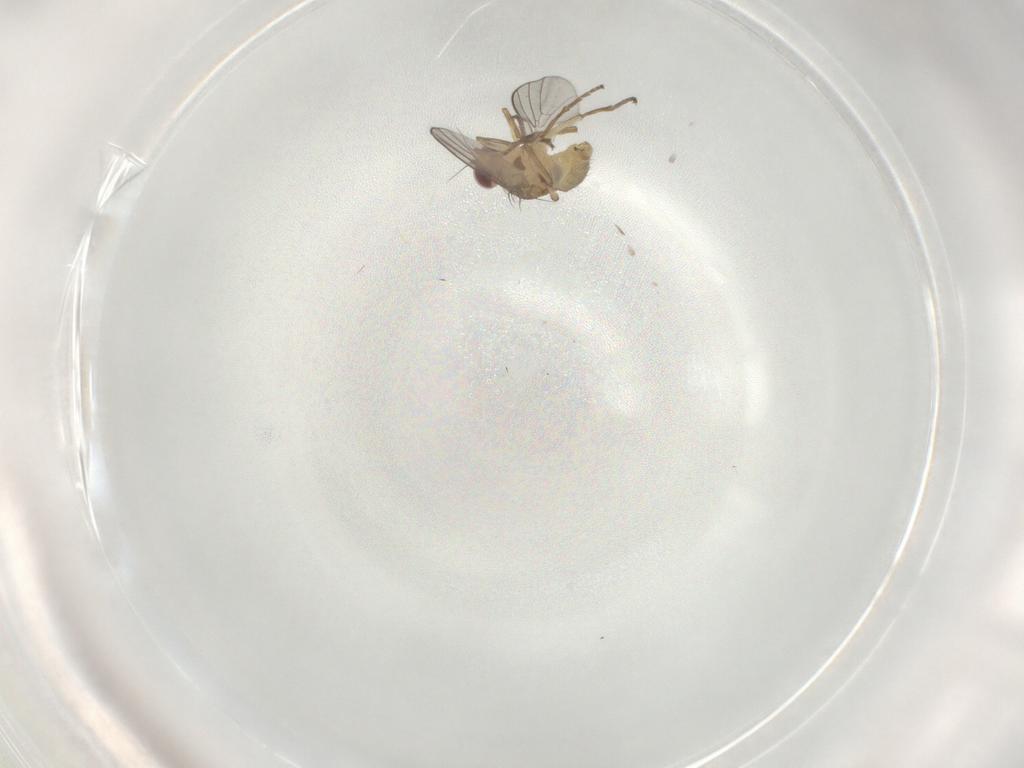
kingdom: Animalia
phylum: Arthropoda
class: Insecta
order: Diptera
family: Agromyzidae
